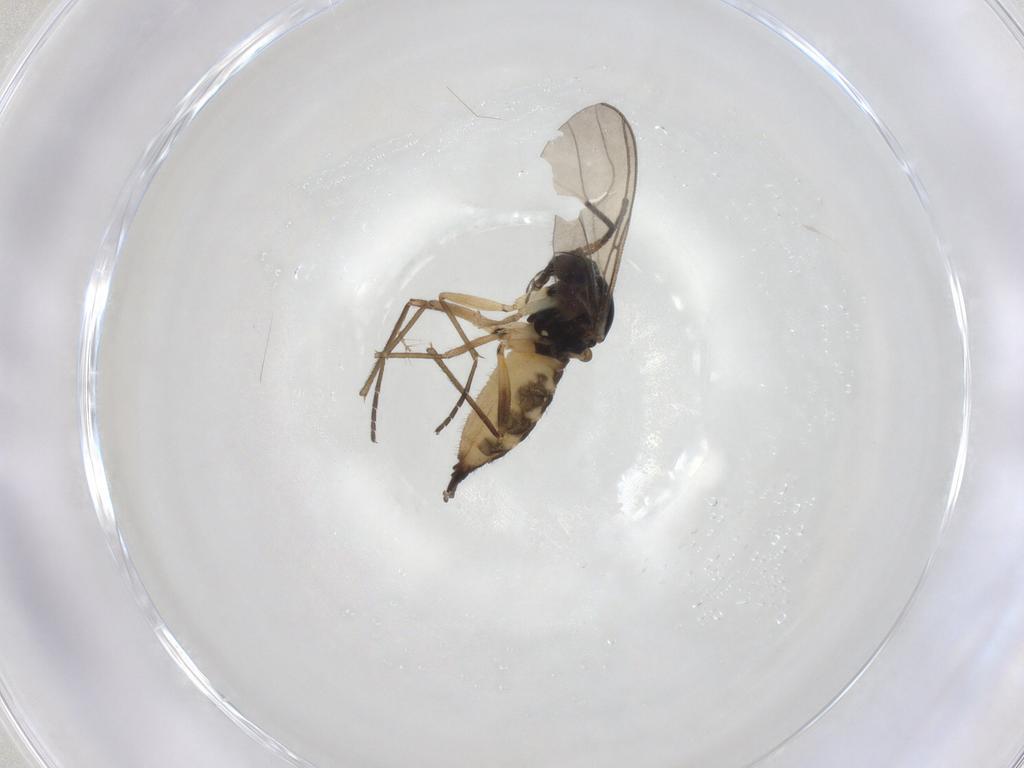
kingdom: Animalia
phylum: Arthropoda
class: Insecta
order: Diptera
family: Sciaridae
